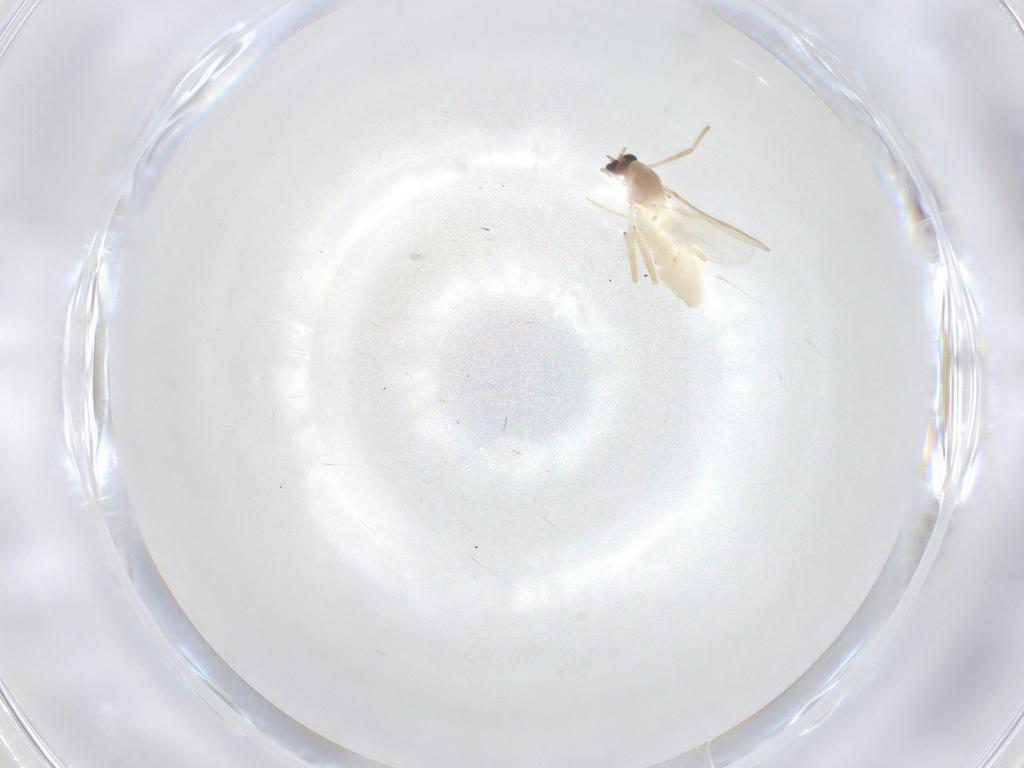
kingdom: Animalia
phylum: Arthropoda
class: Insecta
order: Diptera
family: Chironomidae
